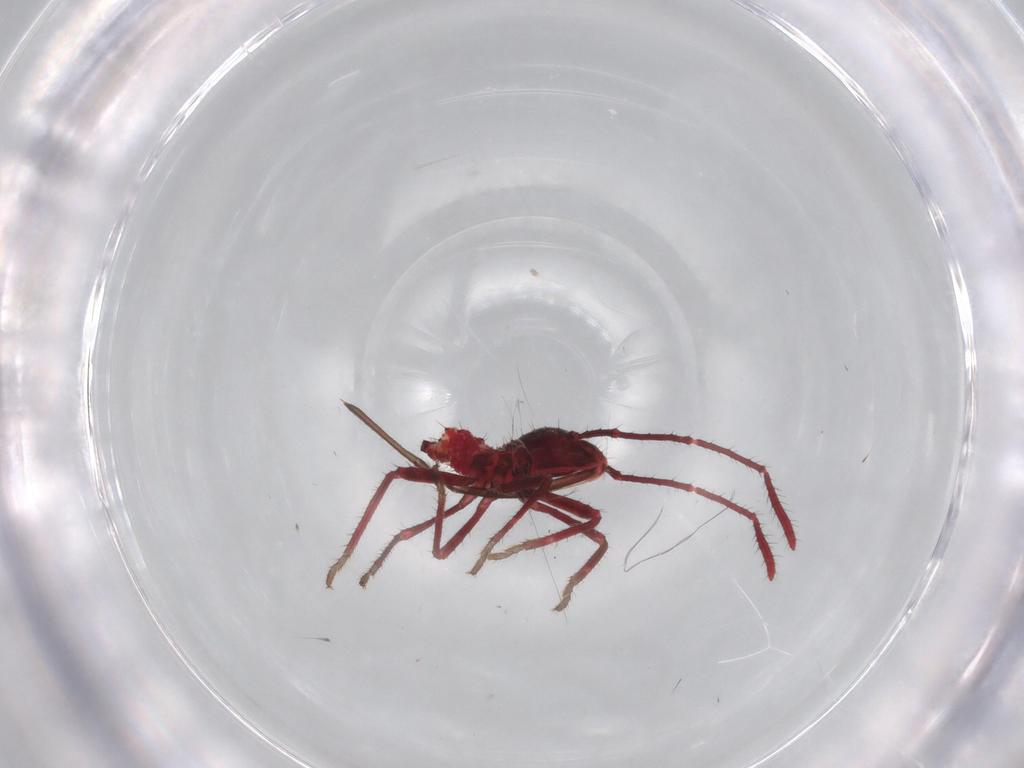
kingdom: Animalia
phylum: Arthropoda
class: Insecta
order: Hemiptera
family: Coreidae
